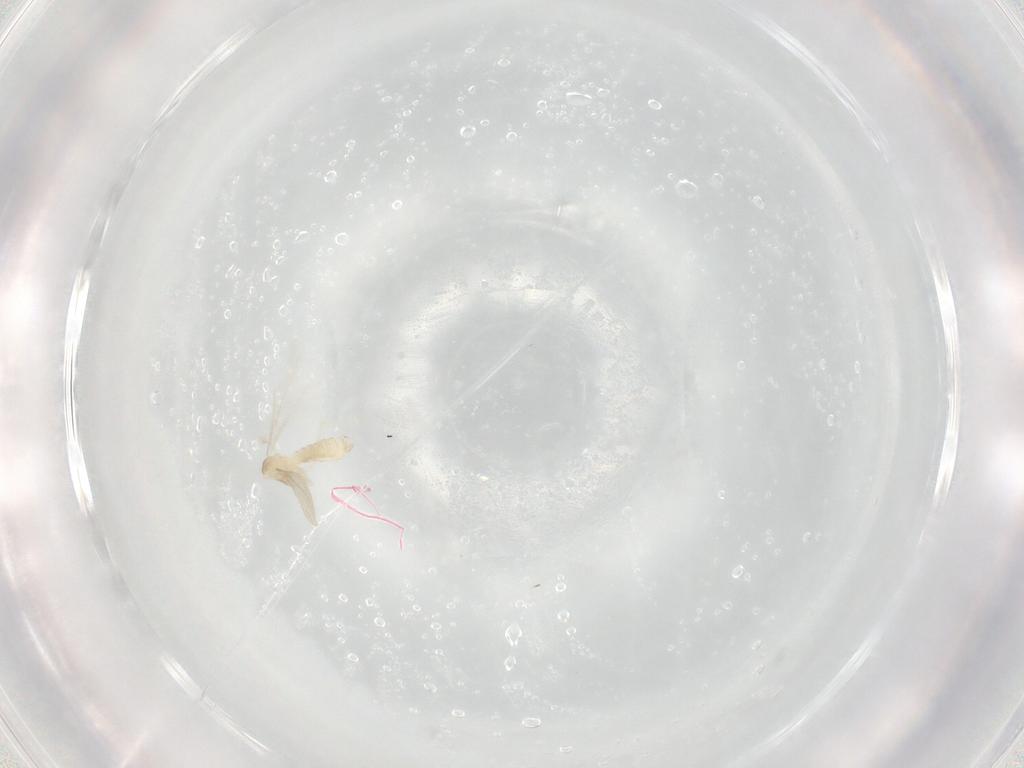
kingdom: Animalia
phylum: Arthropoda
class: Insecta
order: Diptera
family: Cecidomyiidae
